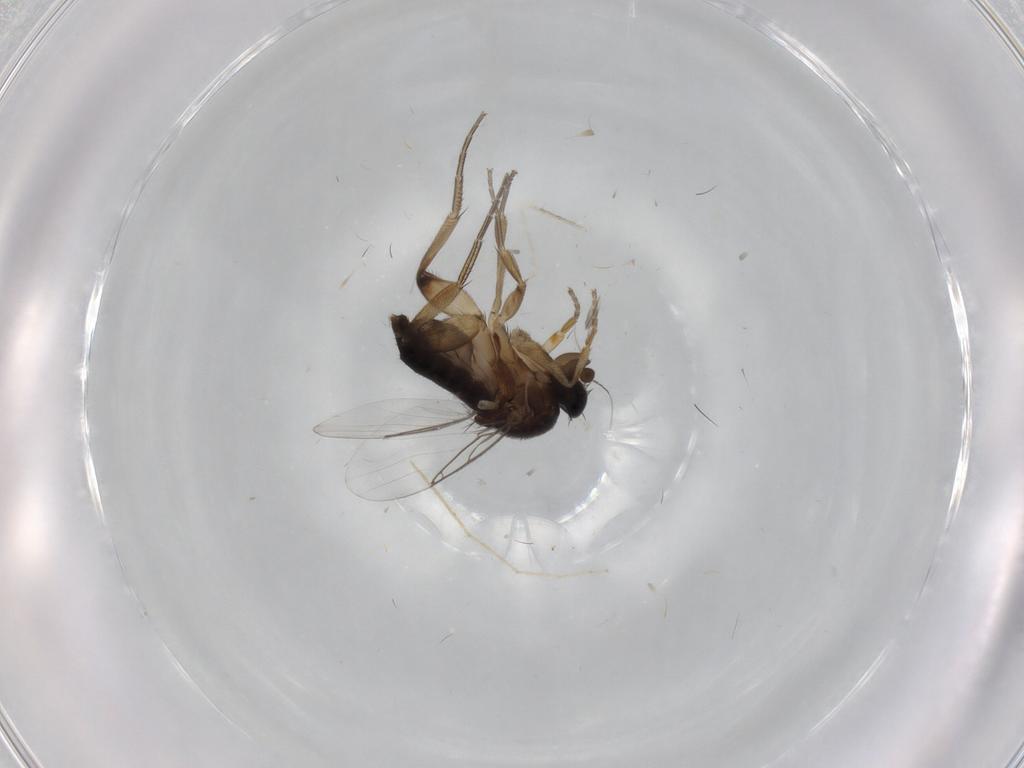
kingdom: Animalia
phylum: Arthropoda
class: Insecta
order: Diptera
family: Phoridae
